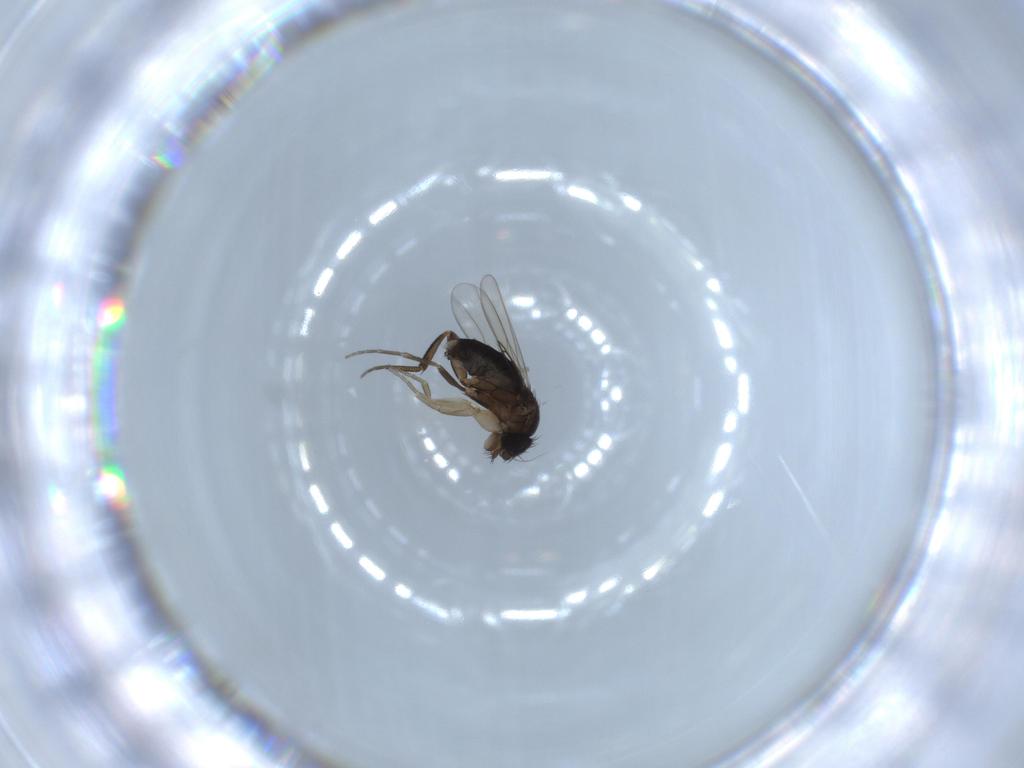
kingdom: Animalia
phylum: Arthropoda
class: Insecta
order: Diptera
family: Phoridae
